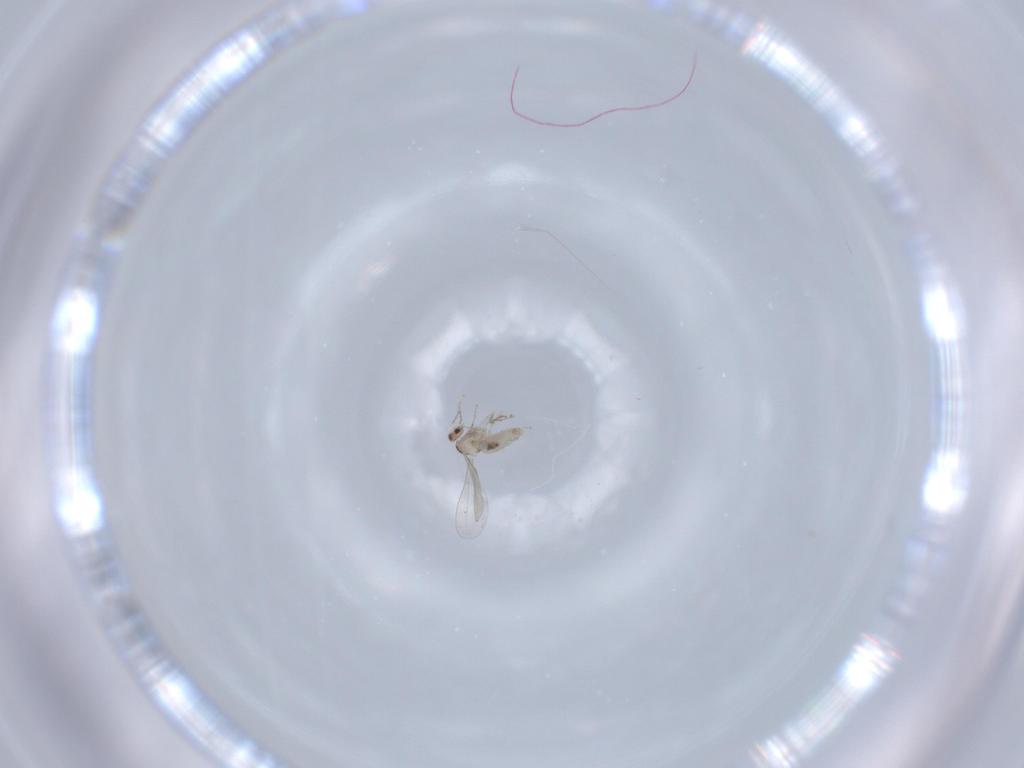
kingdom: Animalia
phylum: Arthropoda
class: Insecta
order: Diptera
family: Cecidomyiidae
